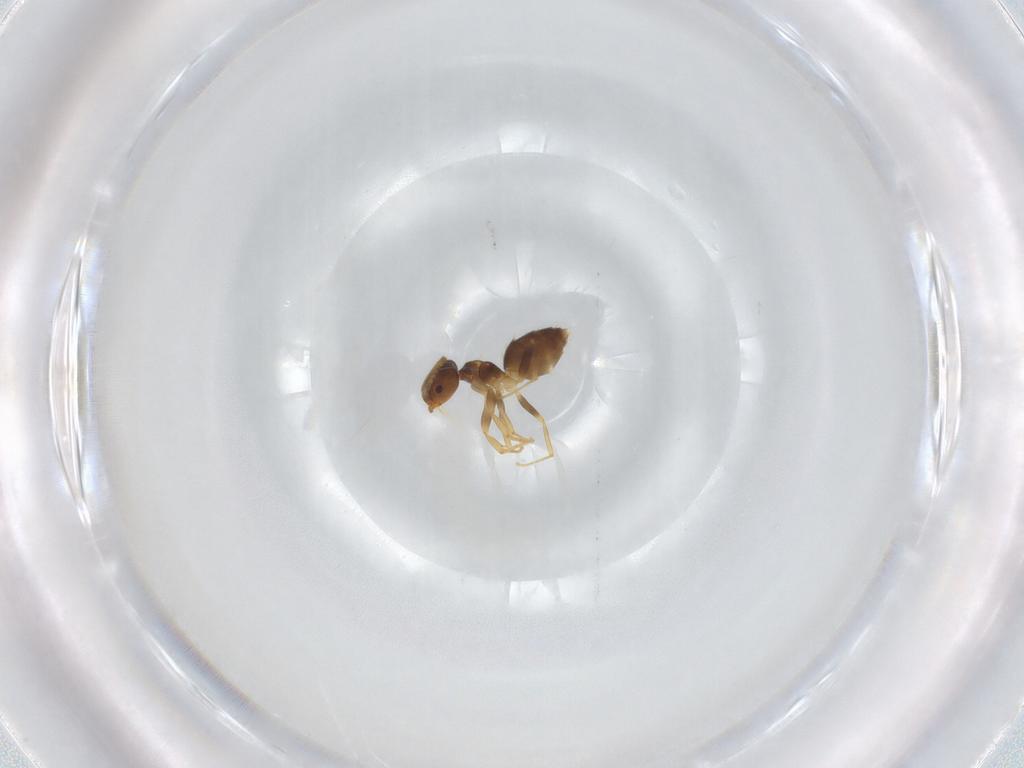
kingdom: Animalia
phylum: Arthropoda
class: Insecta
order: Hymenoptera
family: Formicidae
